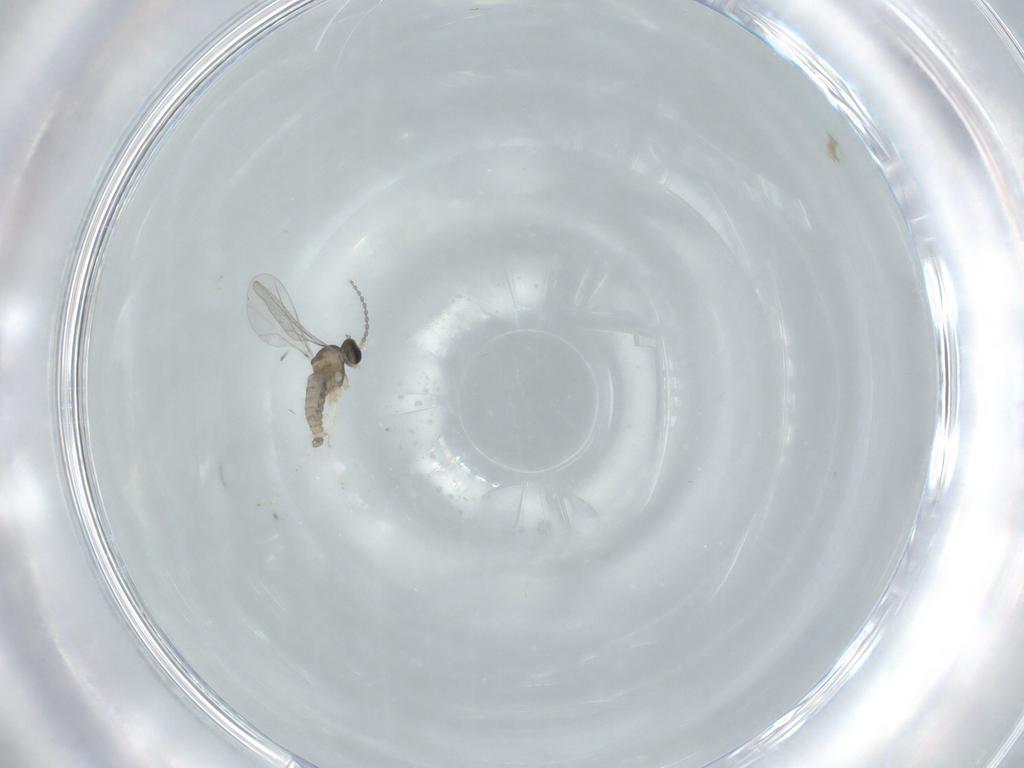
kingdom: Animalia
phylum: Arthropoda
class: Insecta
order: Diptera
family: Cecidomyiidae
